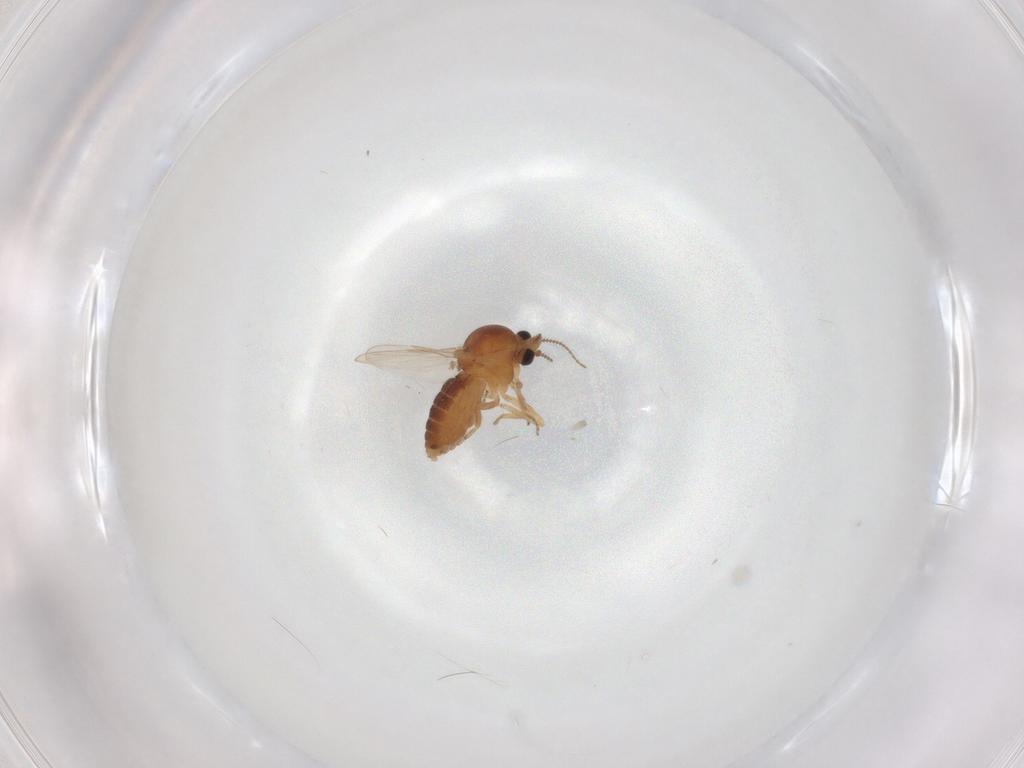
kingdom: Animalia
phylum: Arthropoda
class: Insecta
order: Diptera
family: Ceratopogonidae
